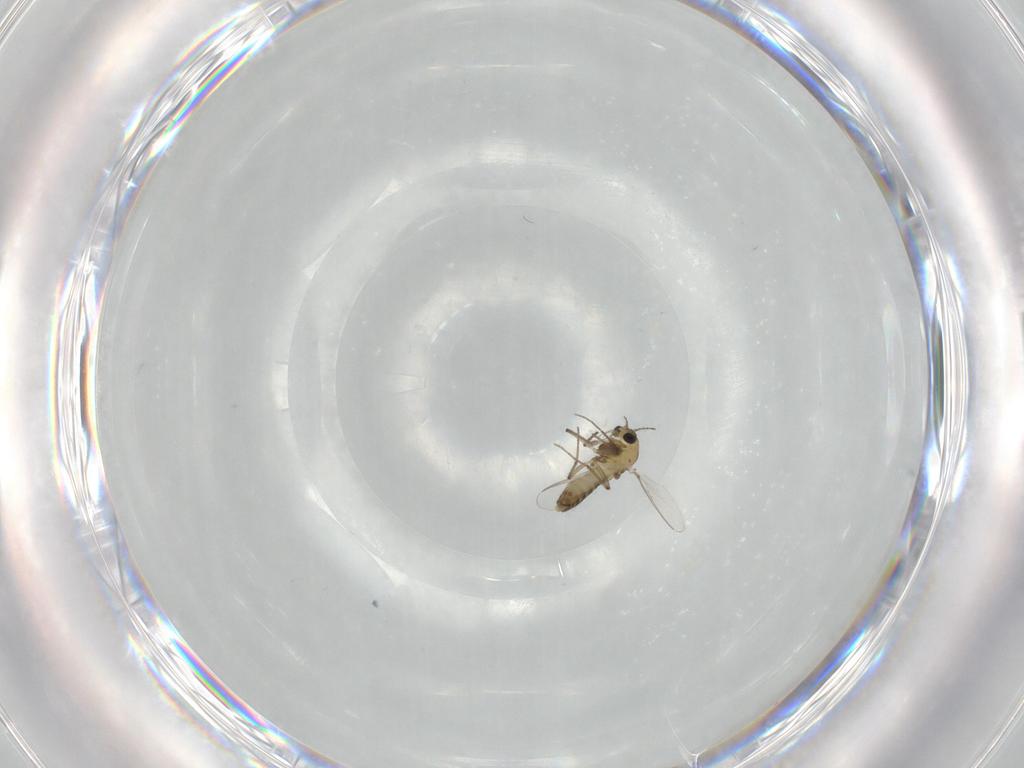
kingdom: Animalia
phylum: Arthropoda
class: Insecta
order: Diptera
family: Chironomidae
